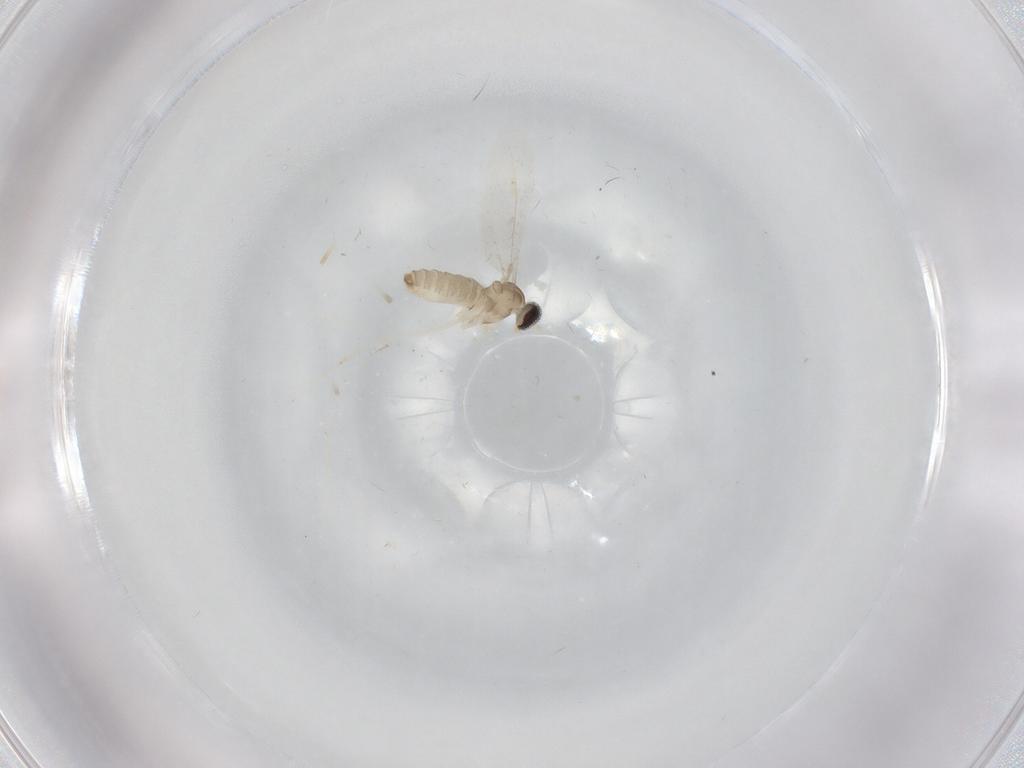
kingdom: Animalia
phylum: Arthropoda
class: Insecta
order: Diptera
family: Cecidomyiidae
